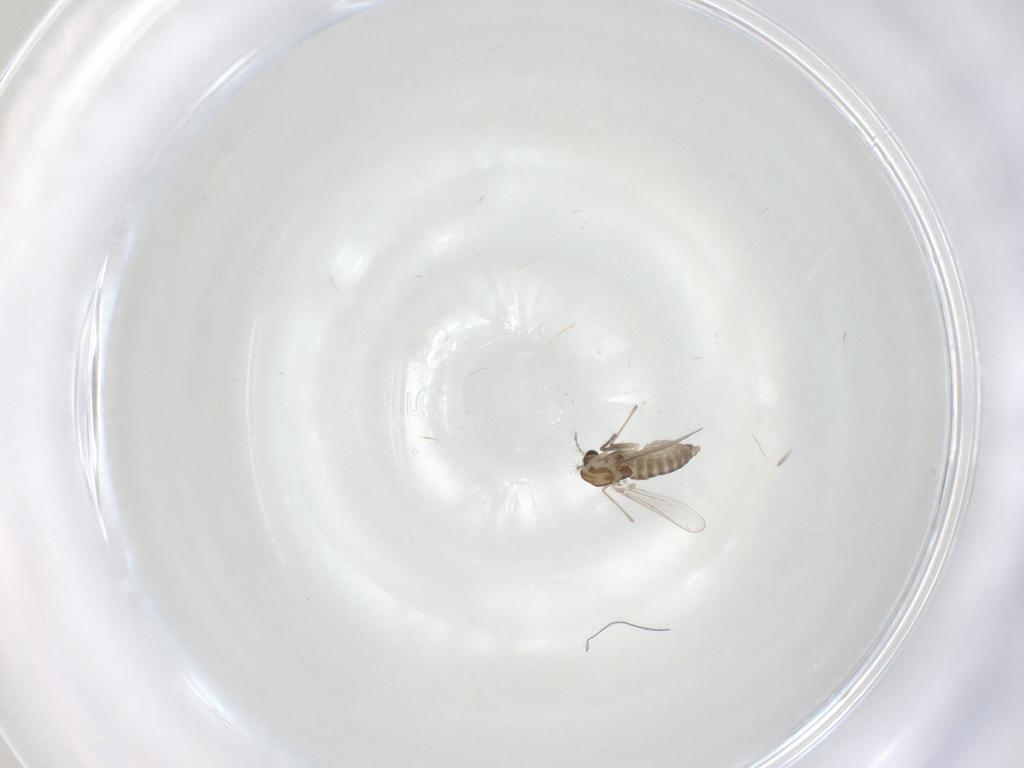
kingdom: Animalia
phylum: Arthropoda
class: Insecta
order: Diptera
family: Chironomidae
